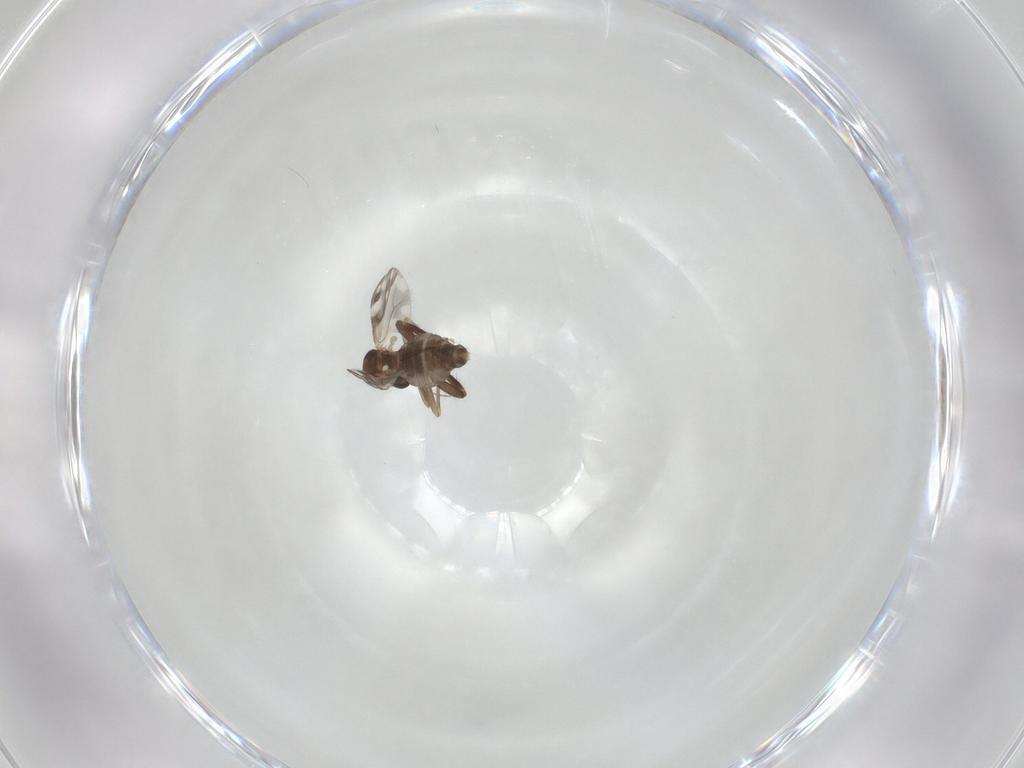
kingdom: Animalia
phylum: Arthropoda
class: Insecta
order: Diptera
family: Ceratopogonidae
